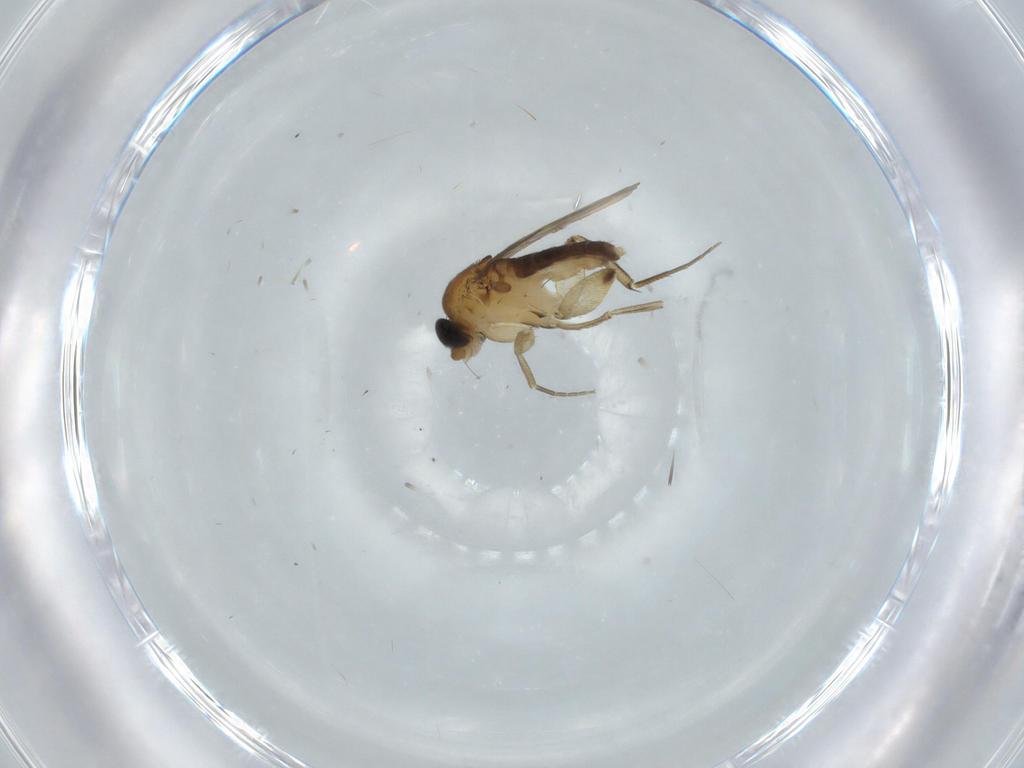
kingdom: Animalia
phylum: Arthropoda
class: Insecta
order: Diptera
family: Phoridae
